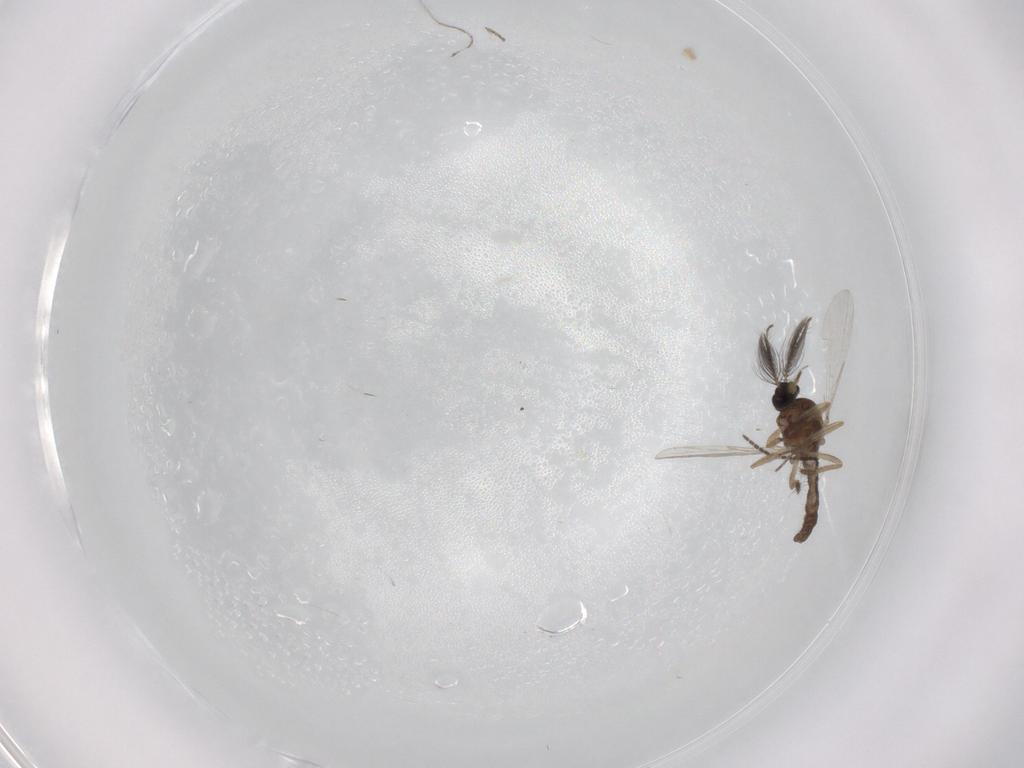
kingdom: Animalia
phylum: Arthropoda
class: Insecta
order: Diptera
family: Ceratopogonidae
